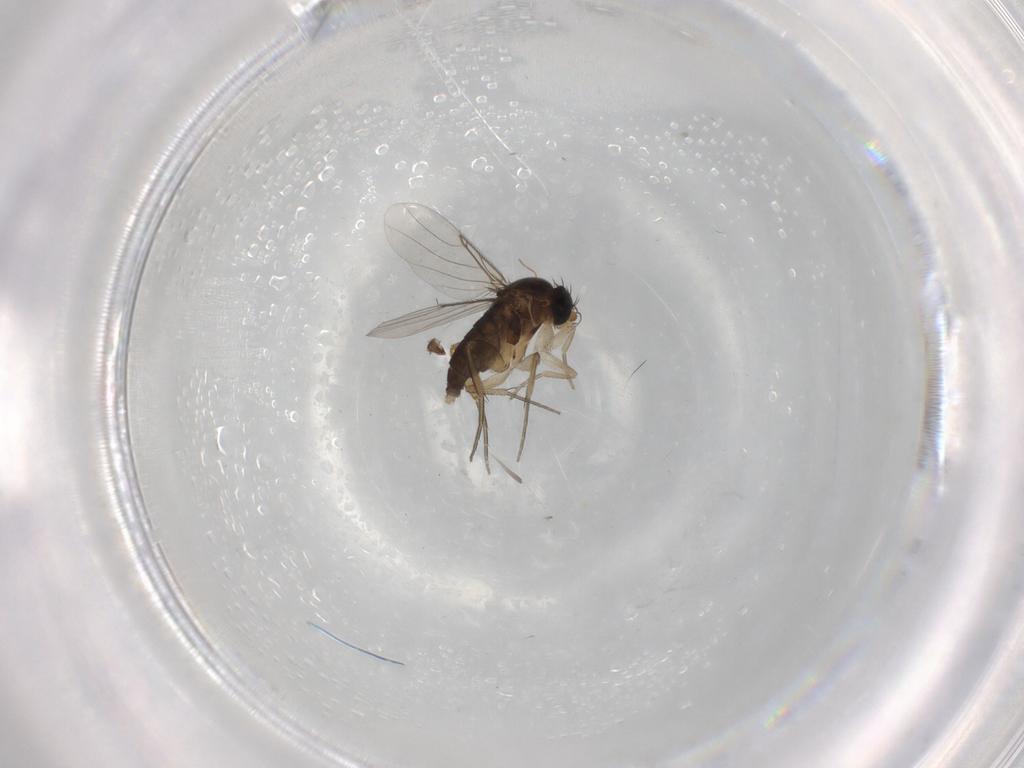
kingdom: Animalia
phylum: Arthropoda
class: Insecta
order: Diptera
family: Phoridae
